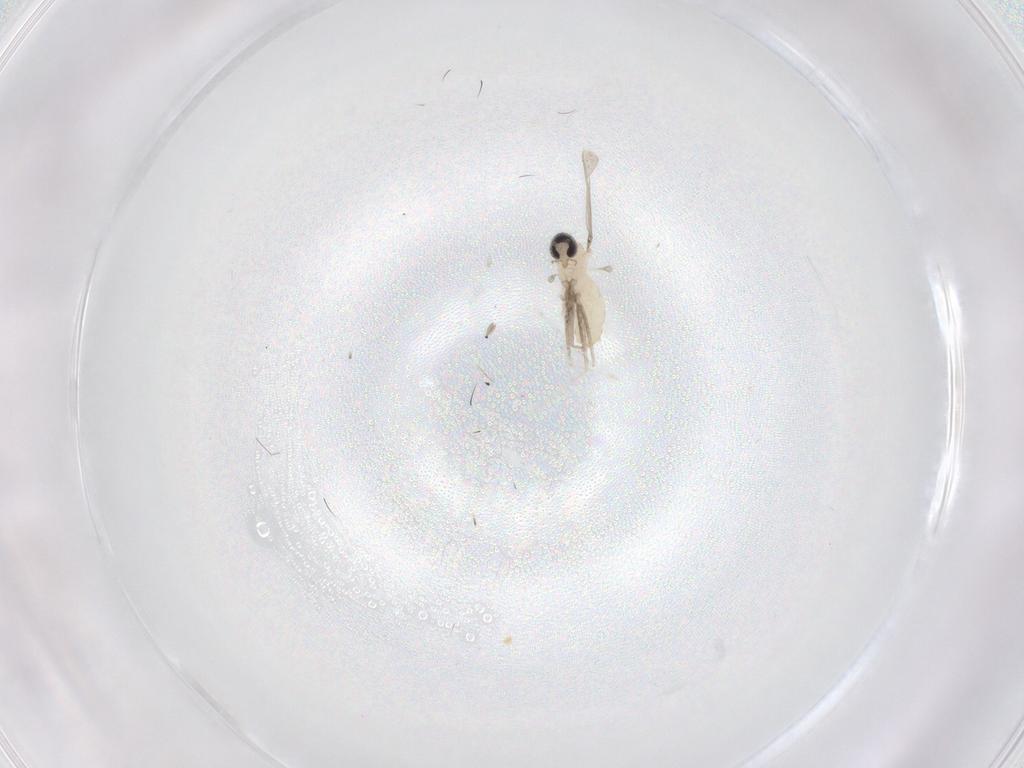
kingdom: Animalia
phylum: Arthropoda
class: Insecta
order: Diptera
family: Cecidomyiidae
